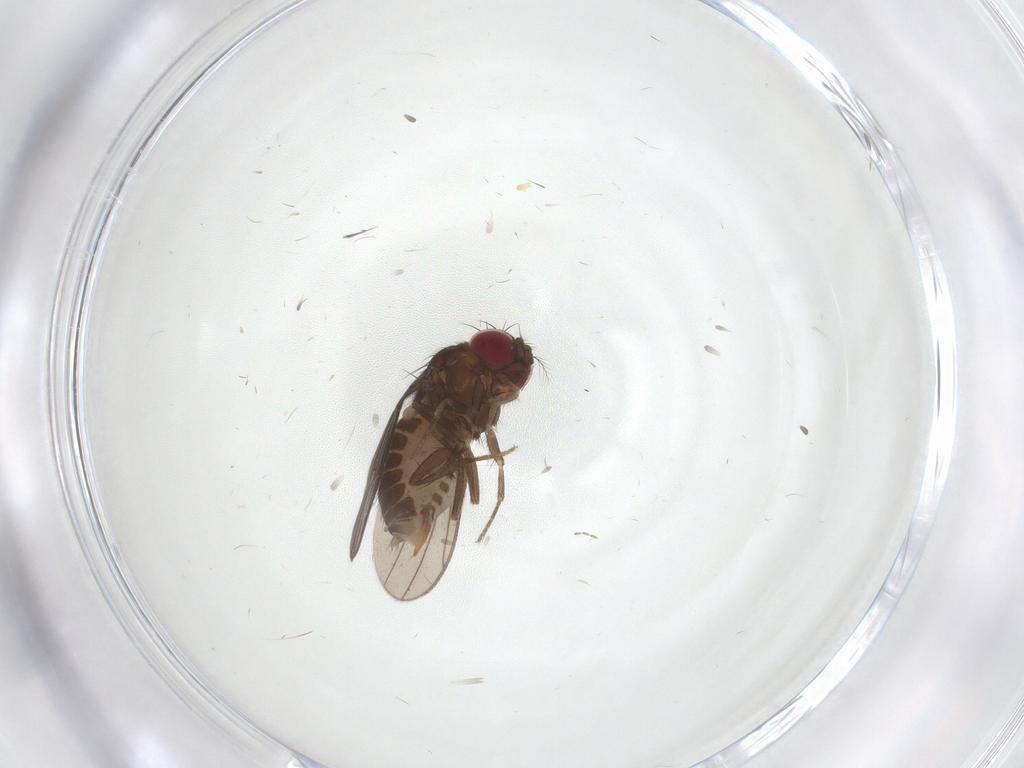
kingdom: Animalia
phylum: Arthropoda
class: Insecta
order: Diptera
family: Drosophilidae
